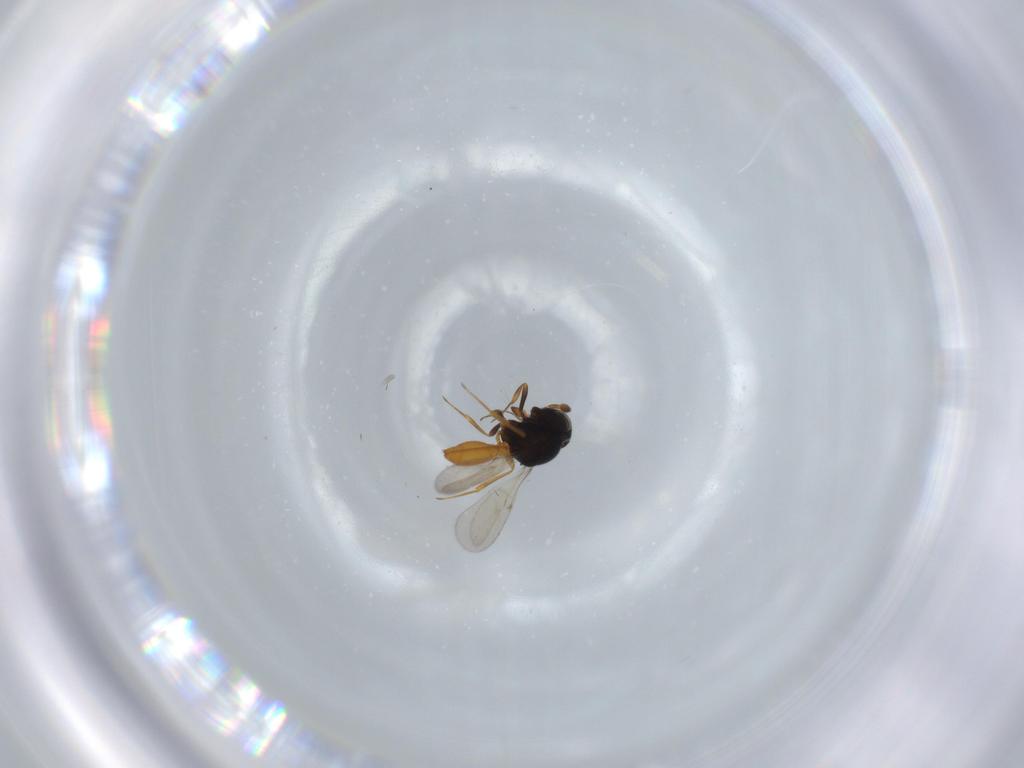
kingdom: Animalia
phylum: Arthropoda
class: Insecta
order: Hymenoptera
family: Scelionidae
